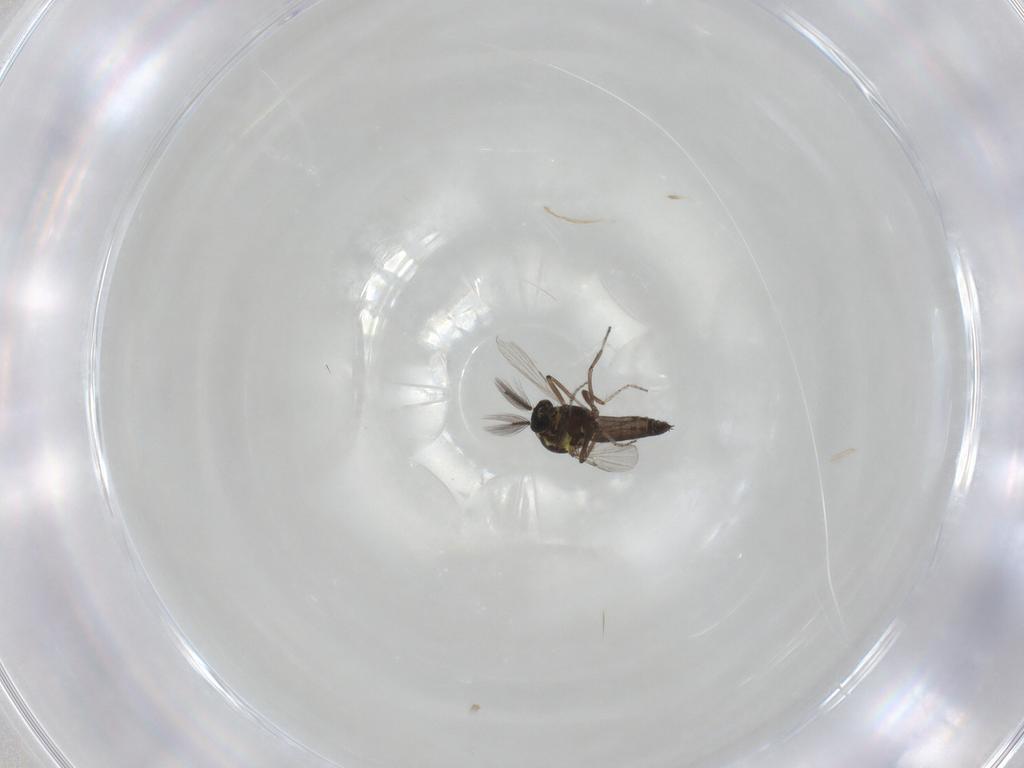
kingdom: Animalia
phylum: Arthropoda
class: Insecta
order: Diptera
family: Ceratopogonidae
